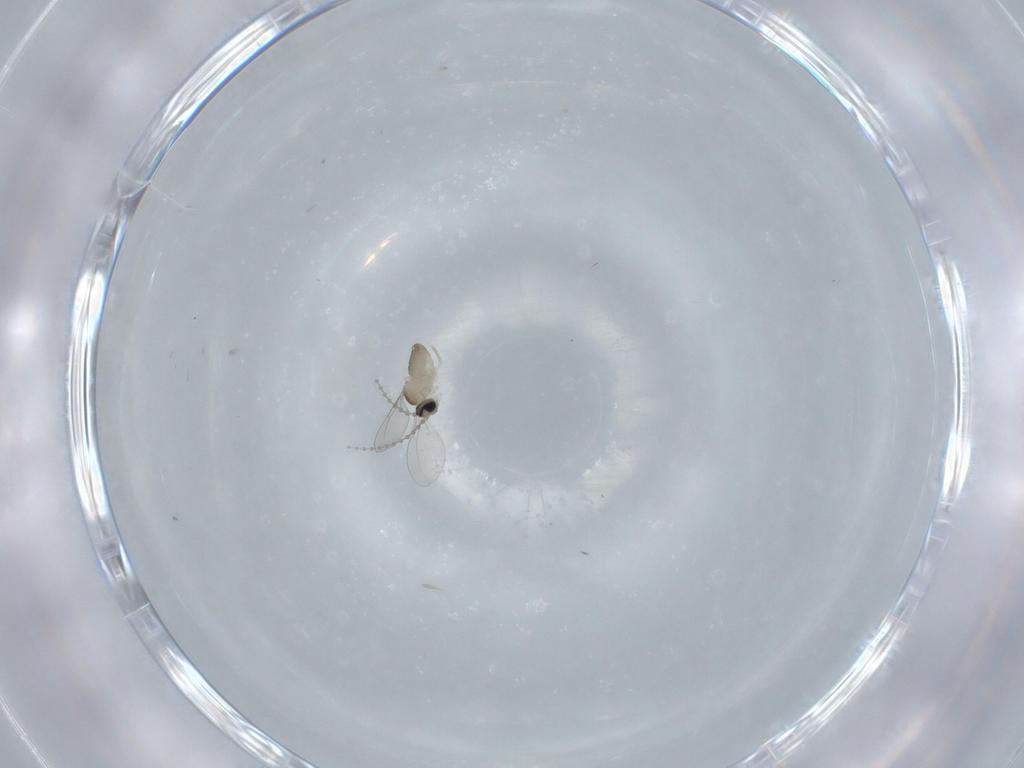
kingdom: Animalia
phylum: Arthropoda
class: Insecta
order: Diptera
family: Cecidomyiidae
